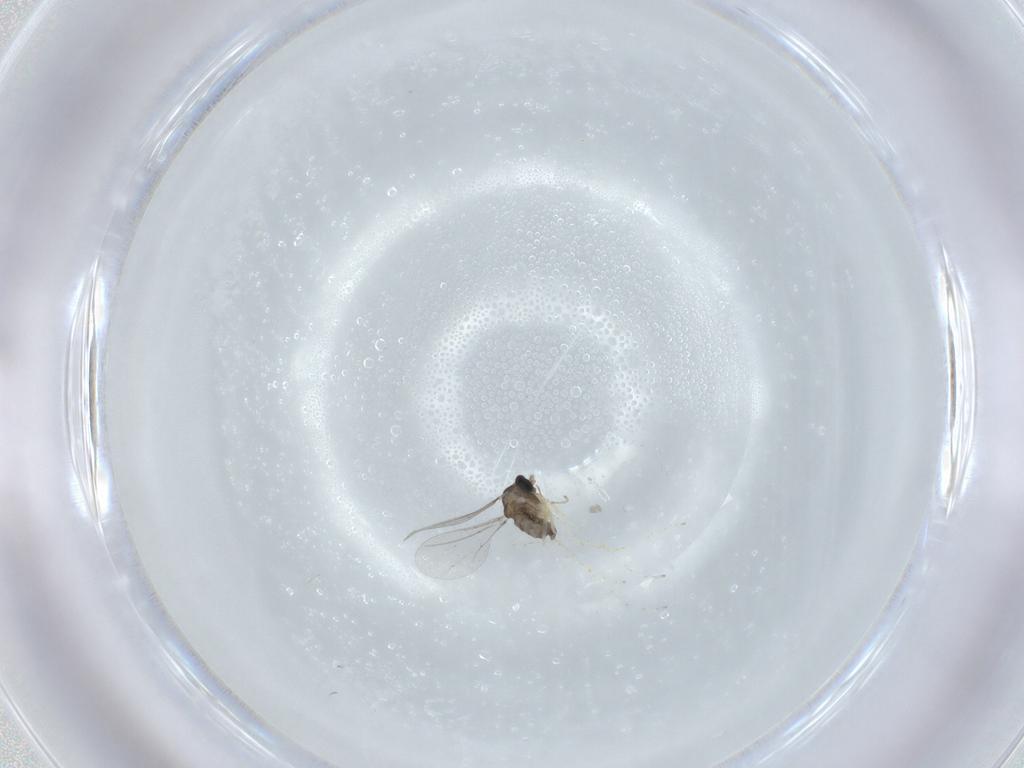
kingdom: Animalia
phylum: Arthropoda
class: Insecta
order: Diptera
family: Cecidomyiidae
